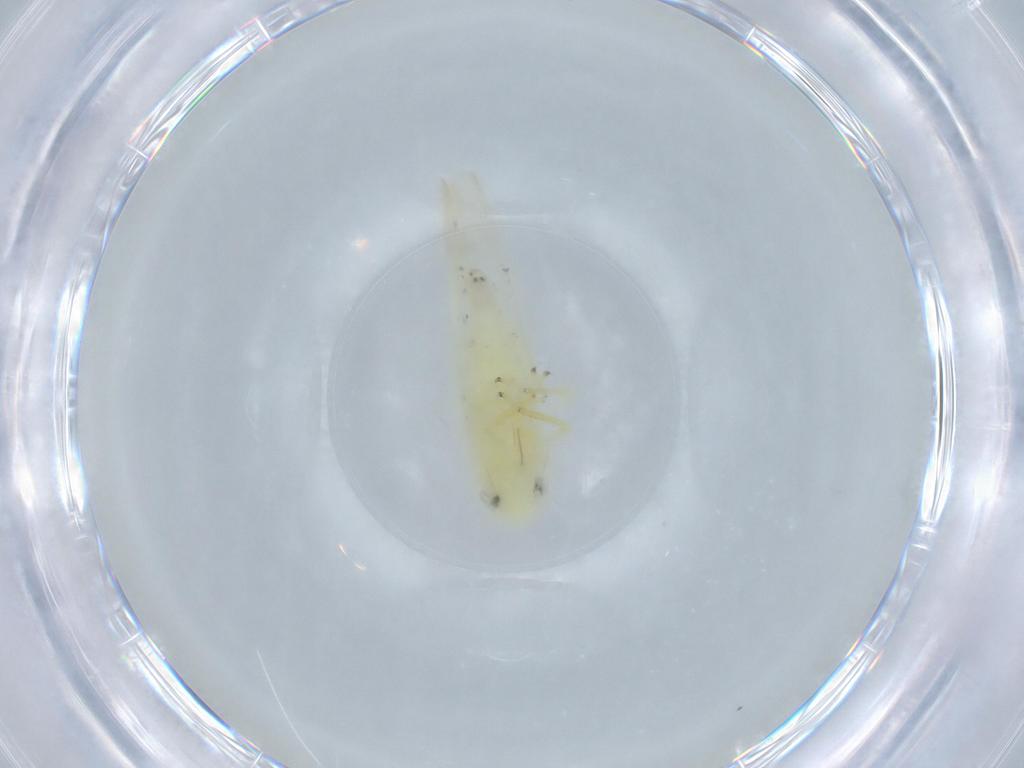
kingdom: Animalia
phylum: Arthropoda
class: Insecta
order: Hemiptera
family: Cicadellidae
